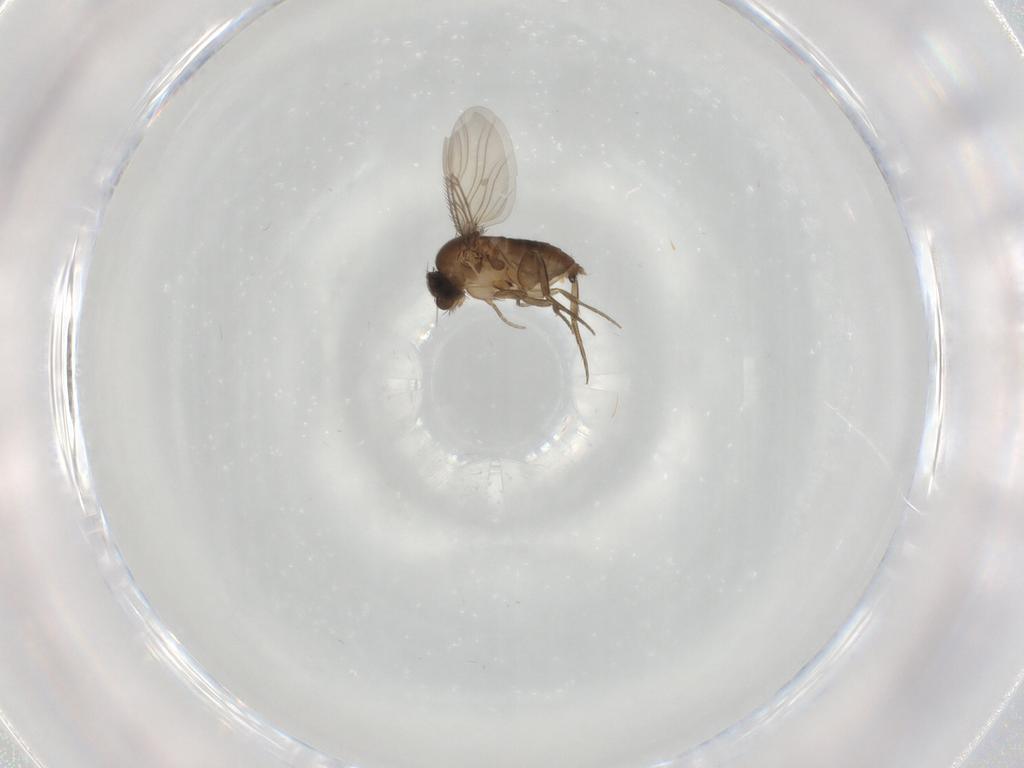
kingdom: Animalia
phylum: Arthropoda
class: Insecta
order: Diptera
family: Phoridae
